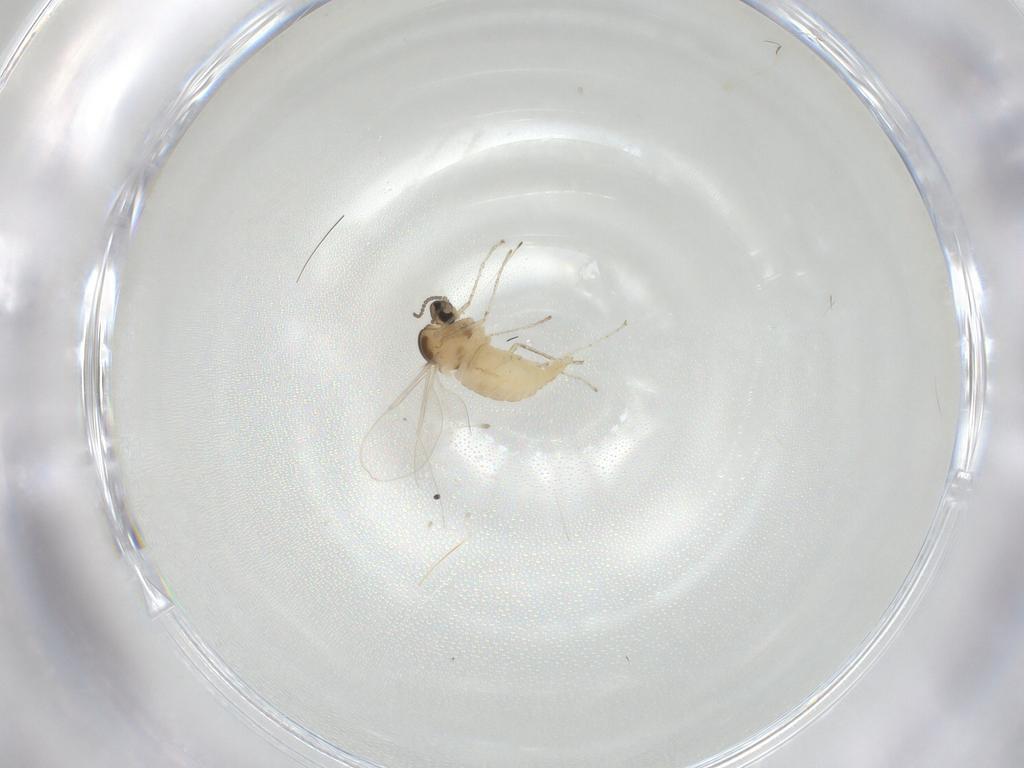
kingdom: Animalia
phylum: Arthropoda
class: Insecta
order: Diptera
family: Cecidomyiidae
